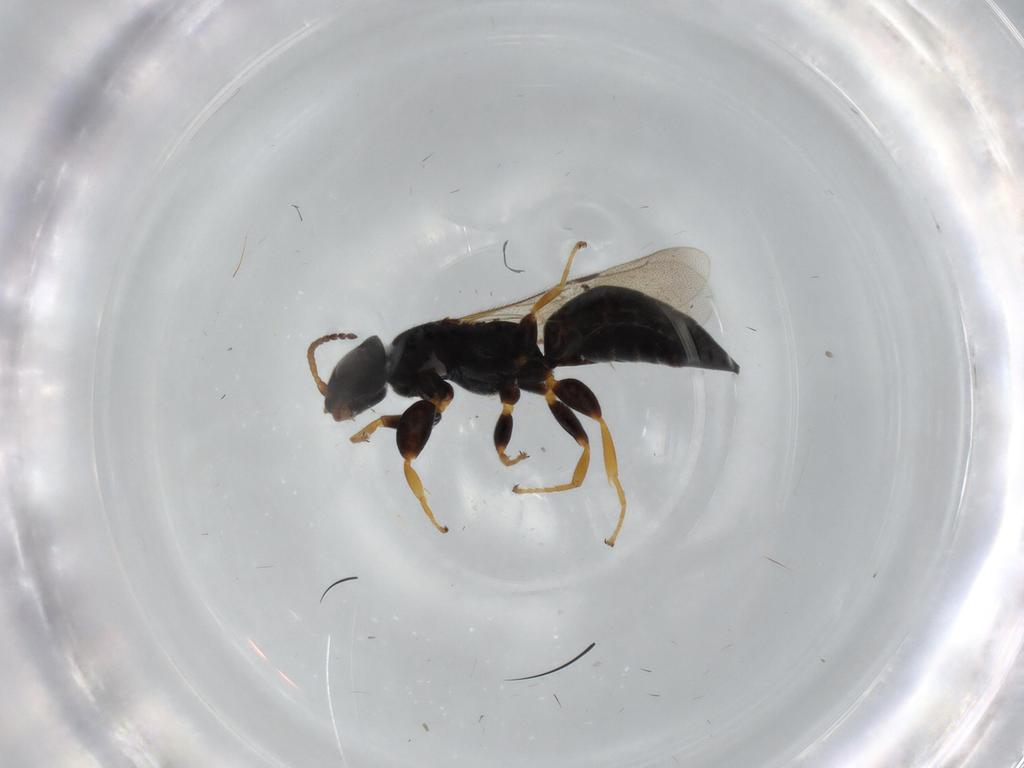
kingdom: Animalia
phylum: Arthropoda
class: Insecta
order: Hymenoptera
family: Bethylidae
